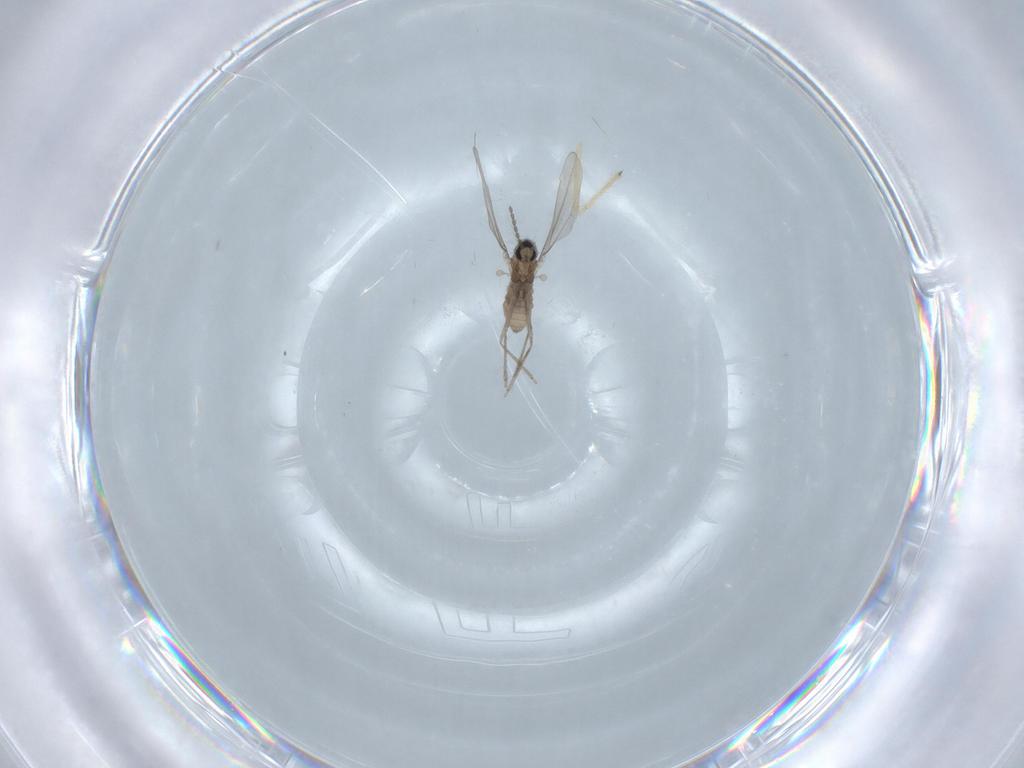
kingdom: Animalia
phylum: Arthropoda
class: Insecta
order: Diptera
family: Cecidomyiidae
